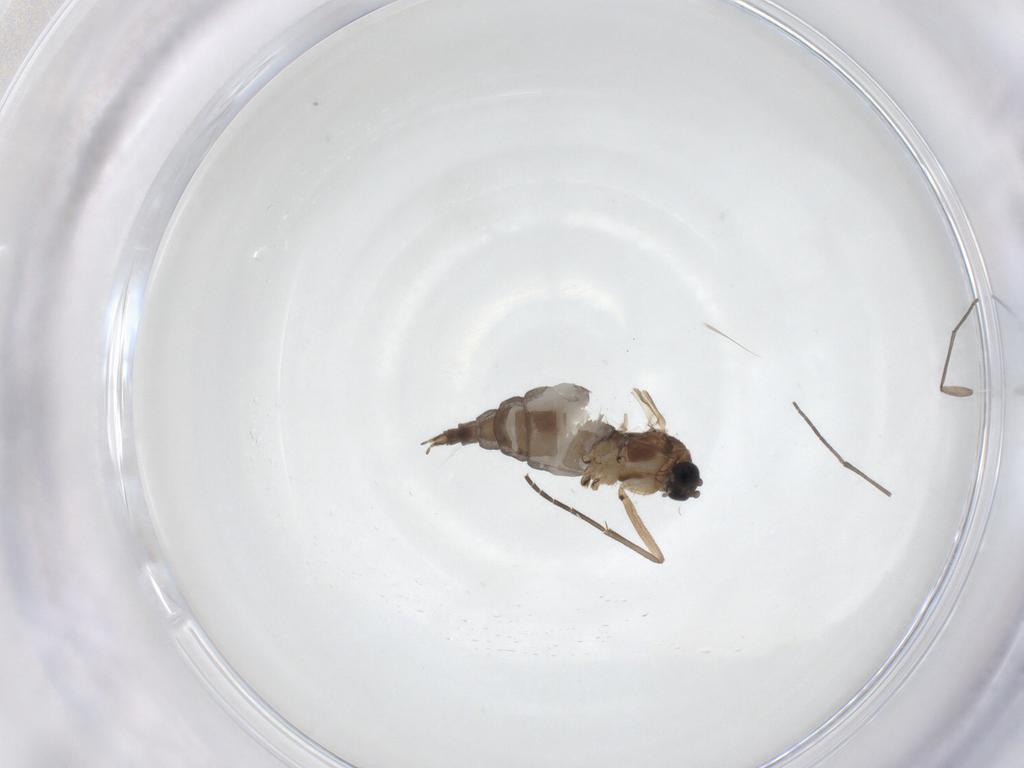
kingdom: Animalia
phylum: Arthropoda
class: Insecta
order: Diptera
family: Sciaridae
